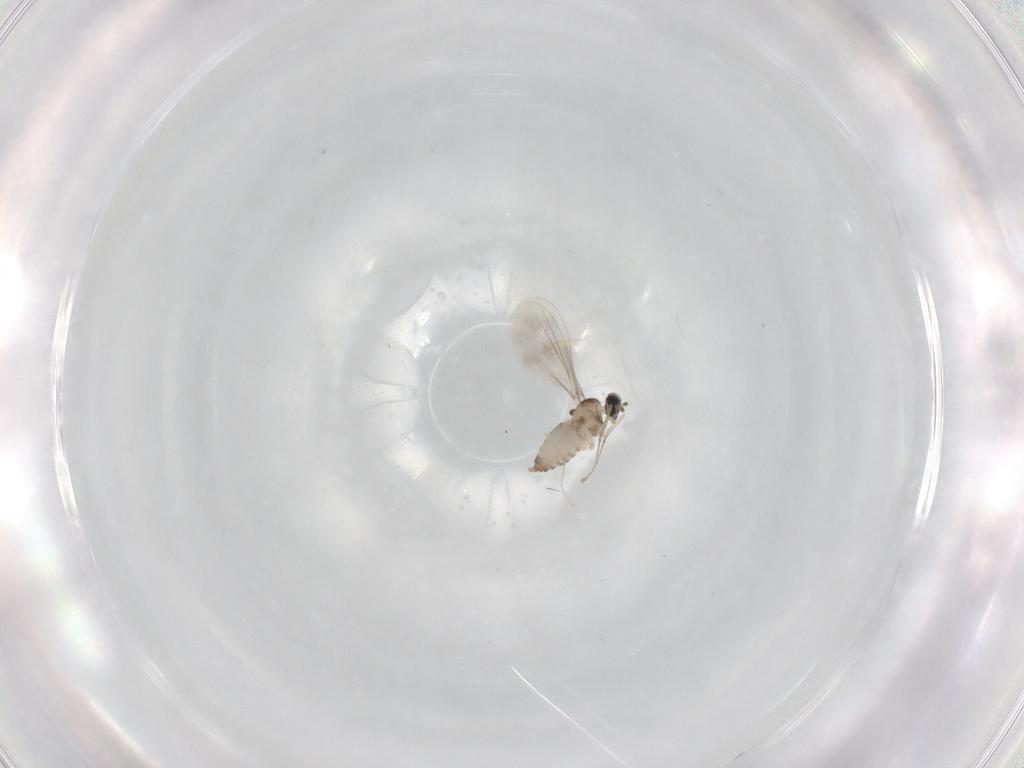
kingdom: Animalia
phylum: Arthropoda
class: Insecta
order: Diptera
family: Cecidomyiidae
